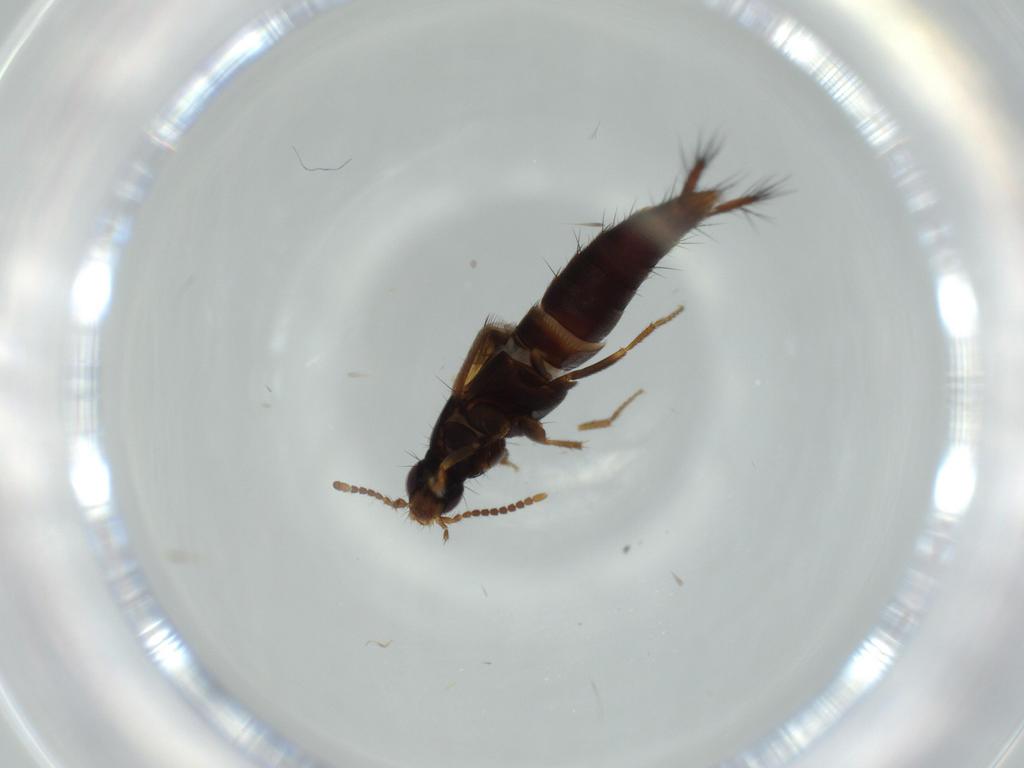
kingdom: Animalia
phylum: Arthropoda
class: Insecta
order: Coleoptera
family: Staphylinidae
